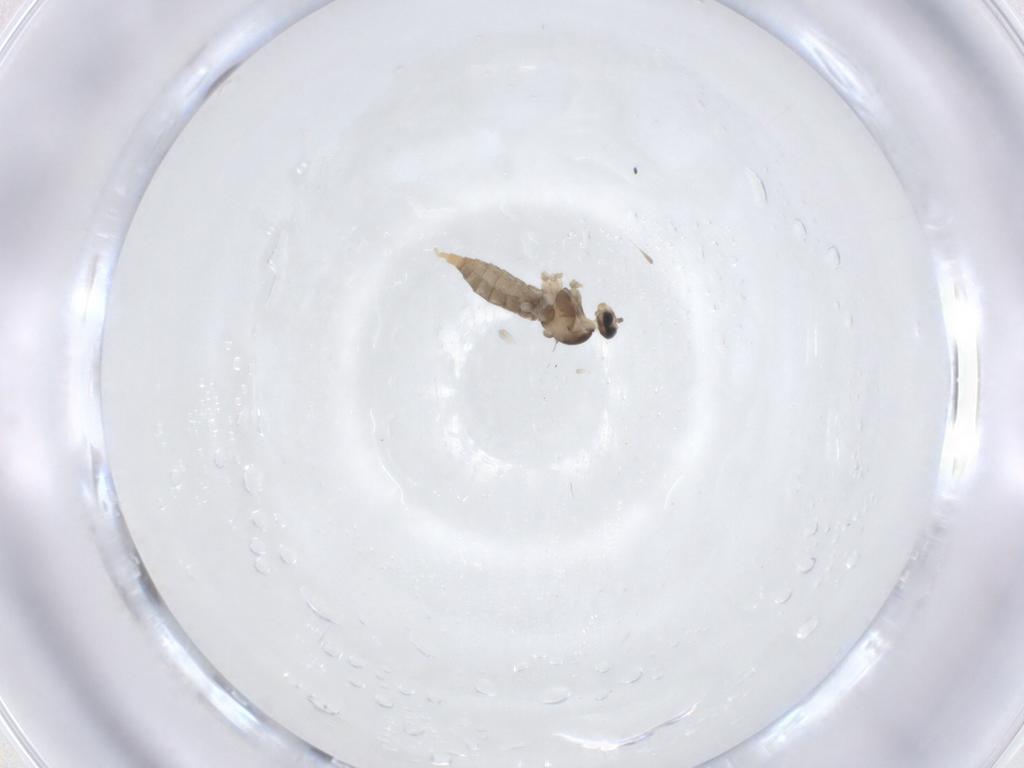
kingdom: Animalia
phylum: Arthropoda
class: Insecta
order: Diptera
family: Cecidomyiidae
